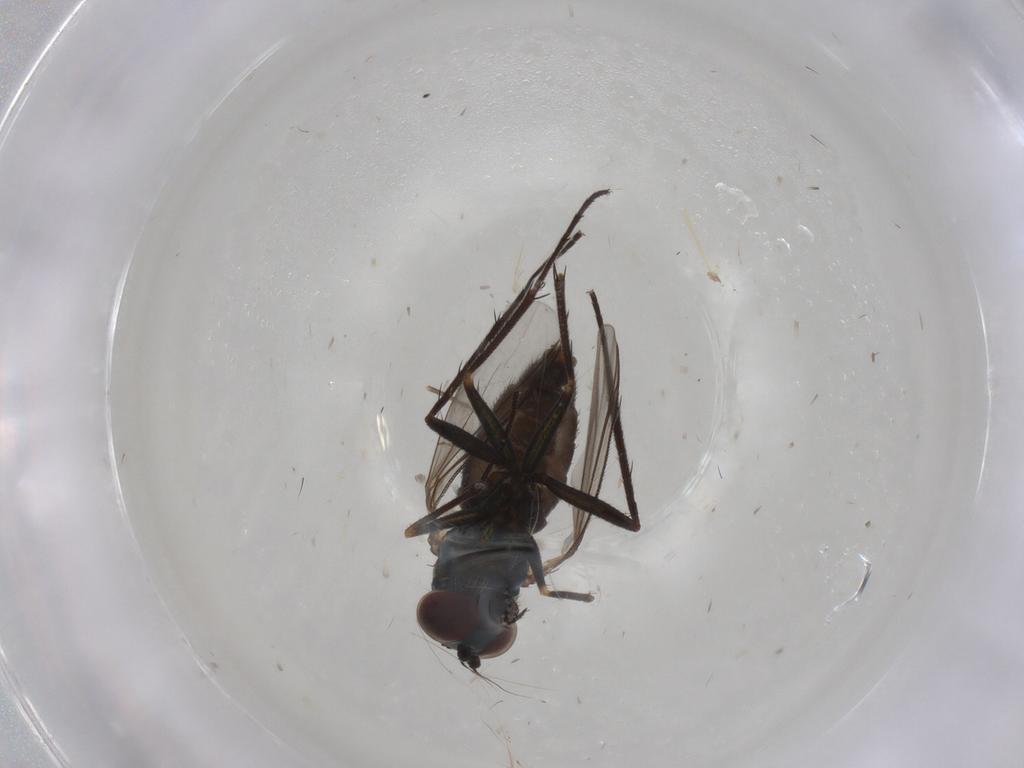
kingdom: Animalia
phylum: Arthropoda
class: Insecta
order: Diptera
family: Dolichopodidae
